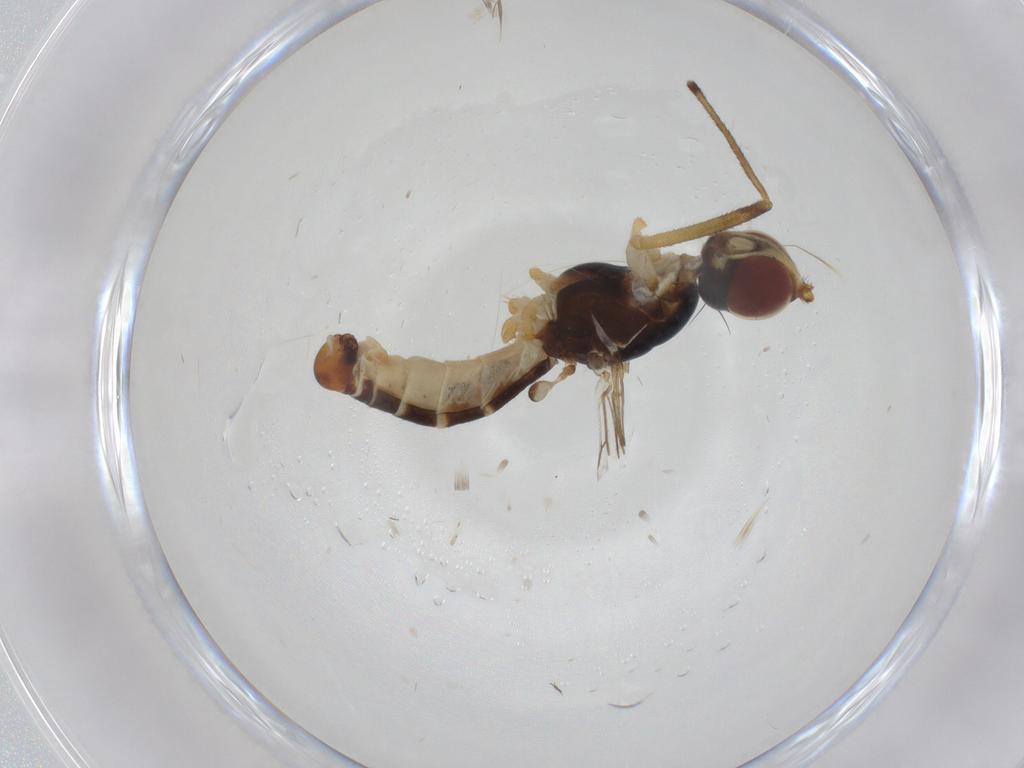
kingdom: Animalia
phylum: Arthropoda
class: Insecta
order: Diptera
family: Micropezidae
